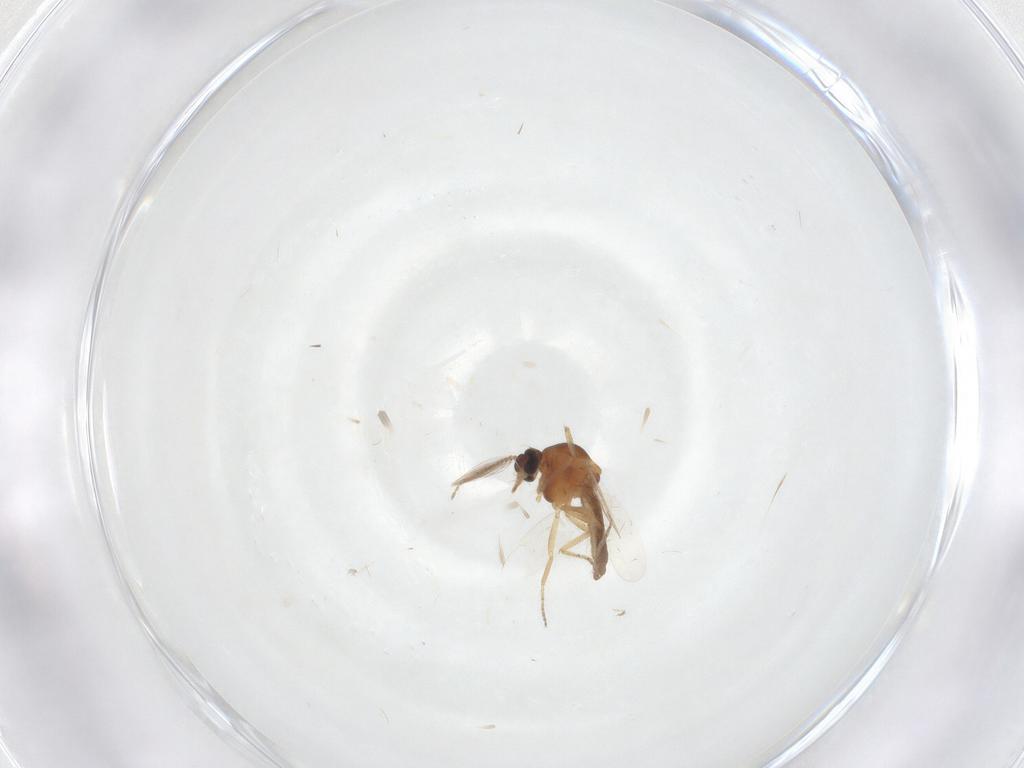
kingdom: Animalia
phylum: Arthropoda
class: Insecta
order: Diptera
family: Ceratopogonidae
